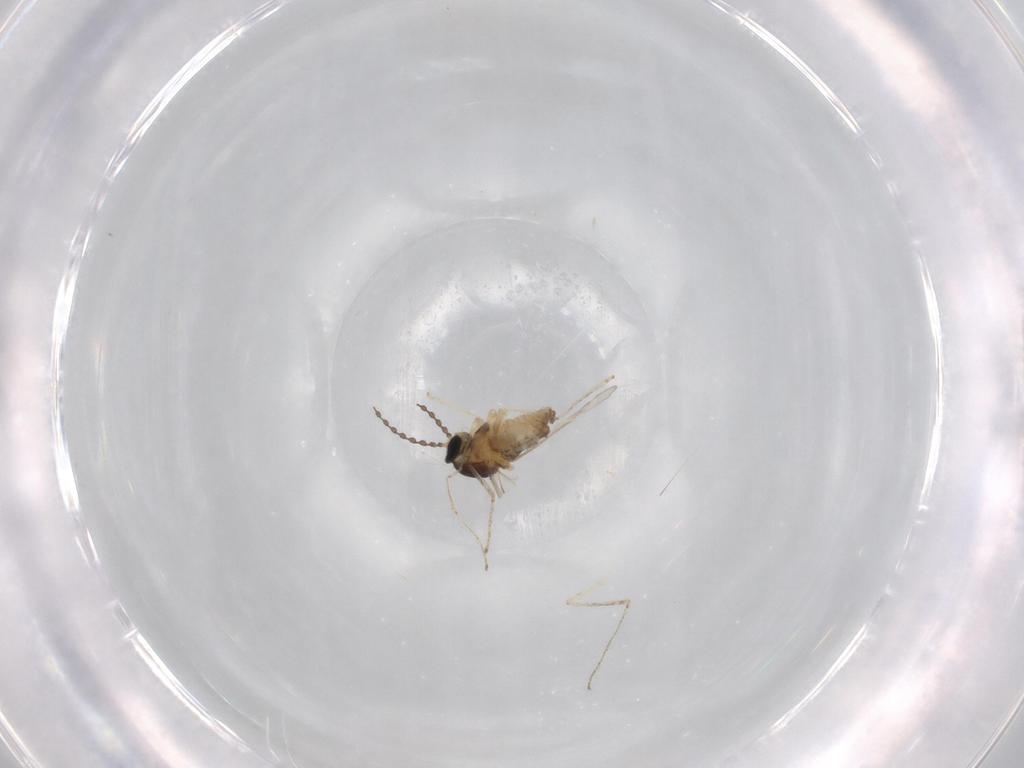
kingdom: Animalia
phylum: Arthropoda
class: Insecta
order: Diptera
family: Cecidomyiidae
